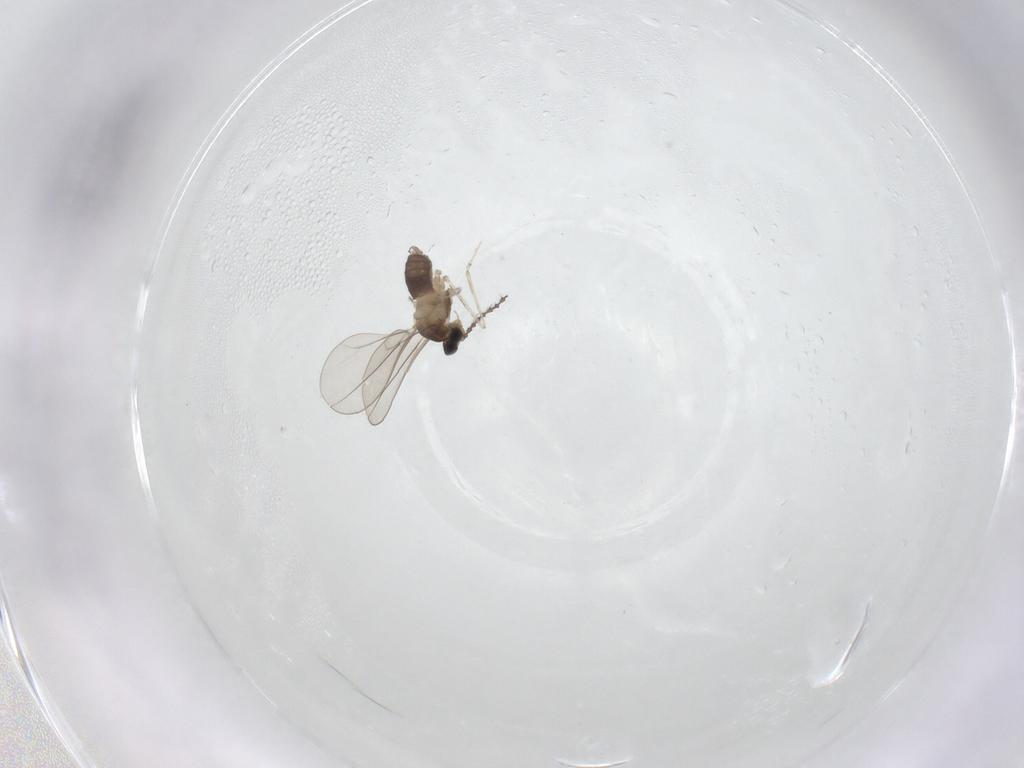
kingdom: Animalia
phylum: Arthropoda
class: Insecta
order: Diptera
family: Cecidomyiidae
